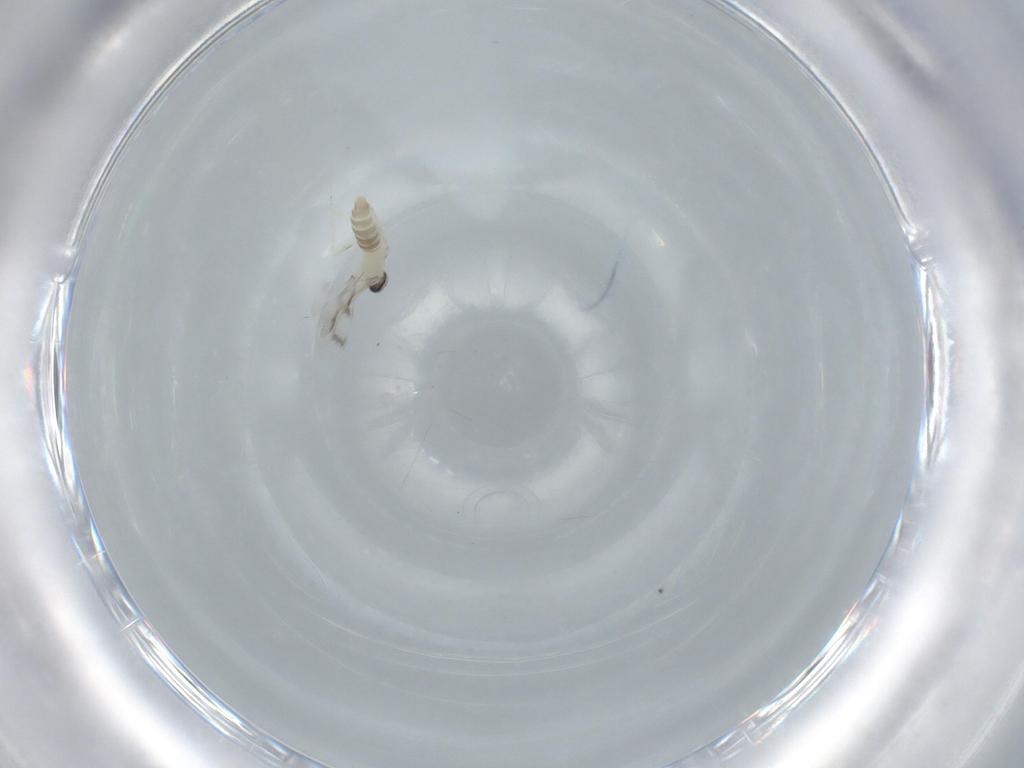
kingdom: Animalia
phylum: Arthropoda
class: Insecta
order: Diptera
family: Cecidomyiidae
